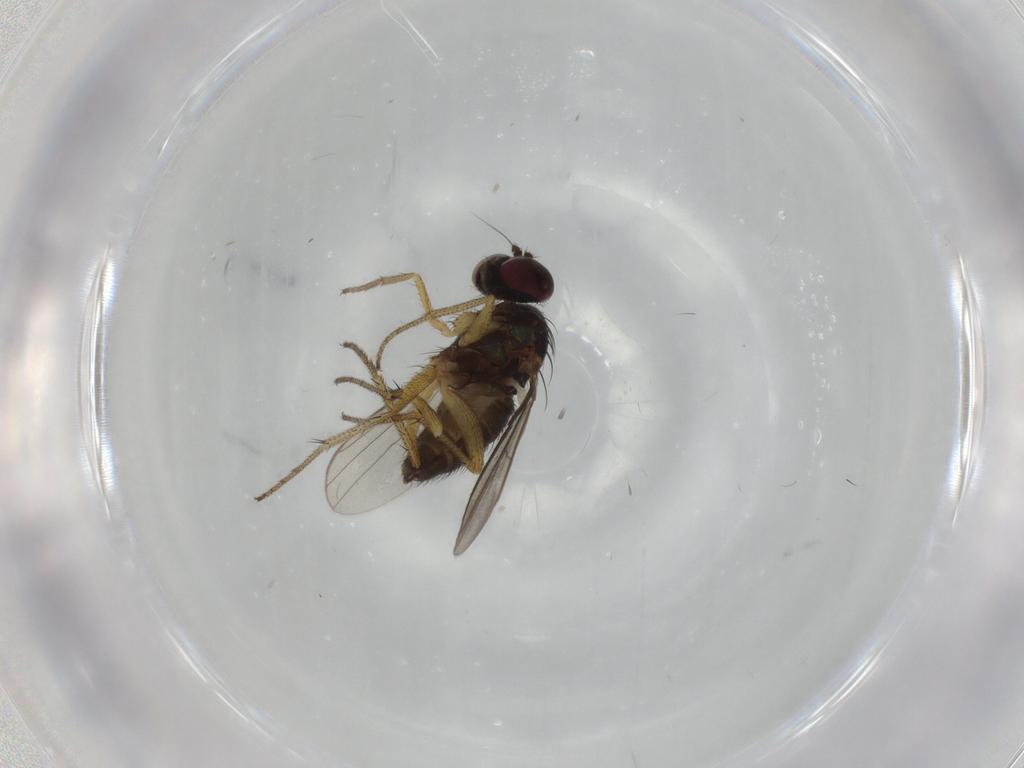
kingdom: Animalia
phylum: Arthropoda
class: Insecta
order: Diptera
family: Dolichopodidae
